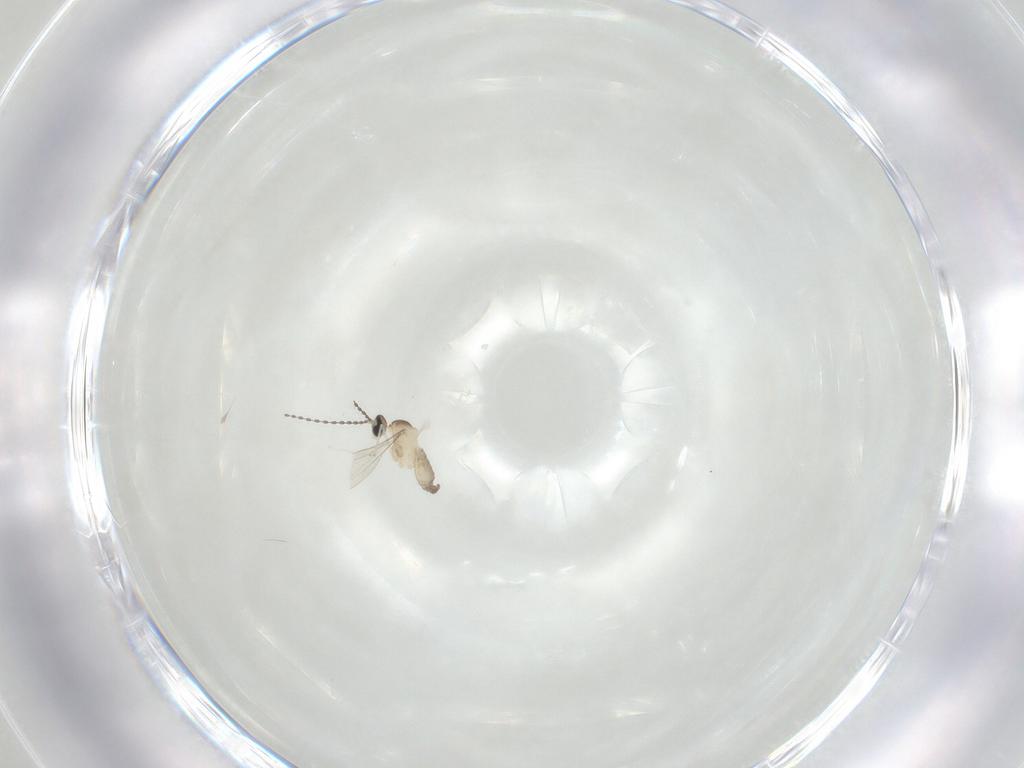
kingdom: Animalia
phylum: Arthropoda
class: Insecta
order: Diptera
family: Cecidomyiidae
